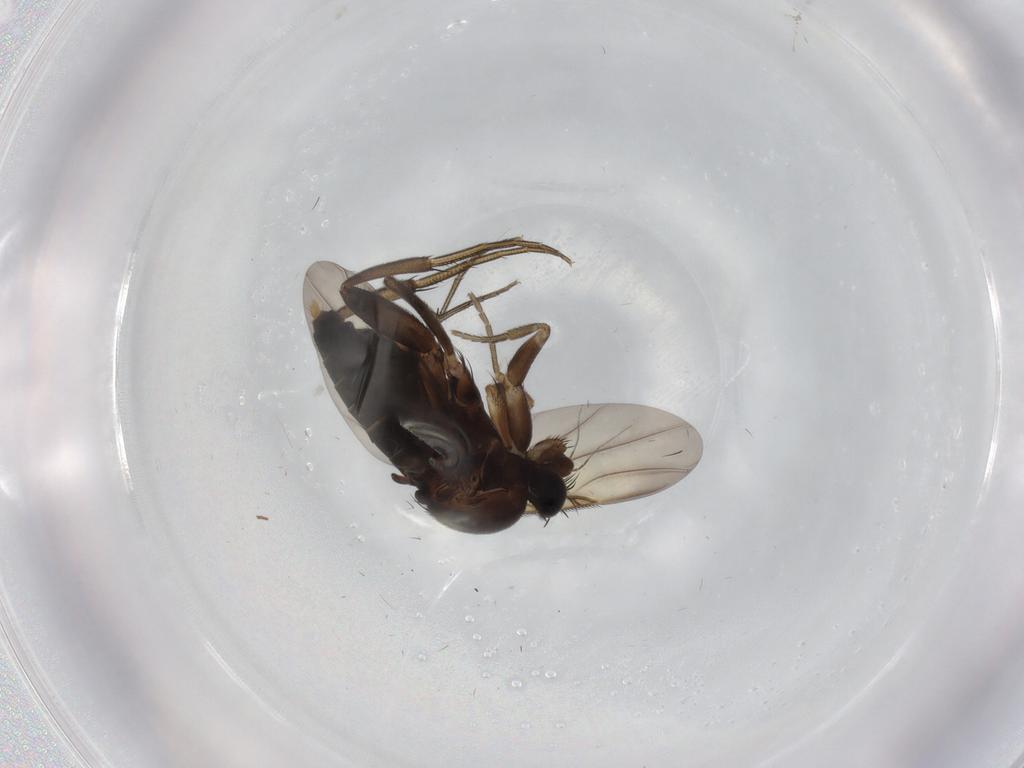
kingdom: Animalia
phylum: Arthropoda
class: Insecta
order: Diptera
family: Phoridae
